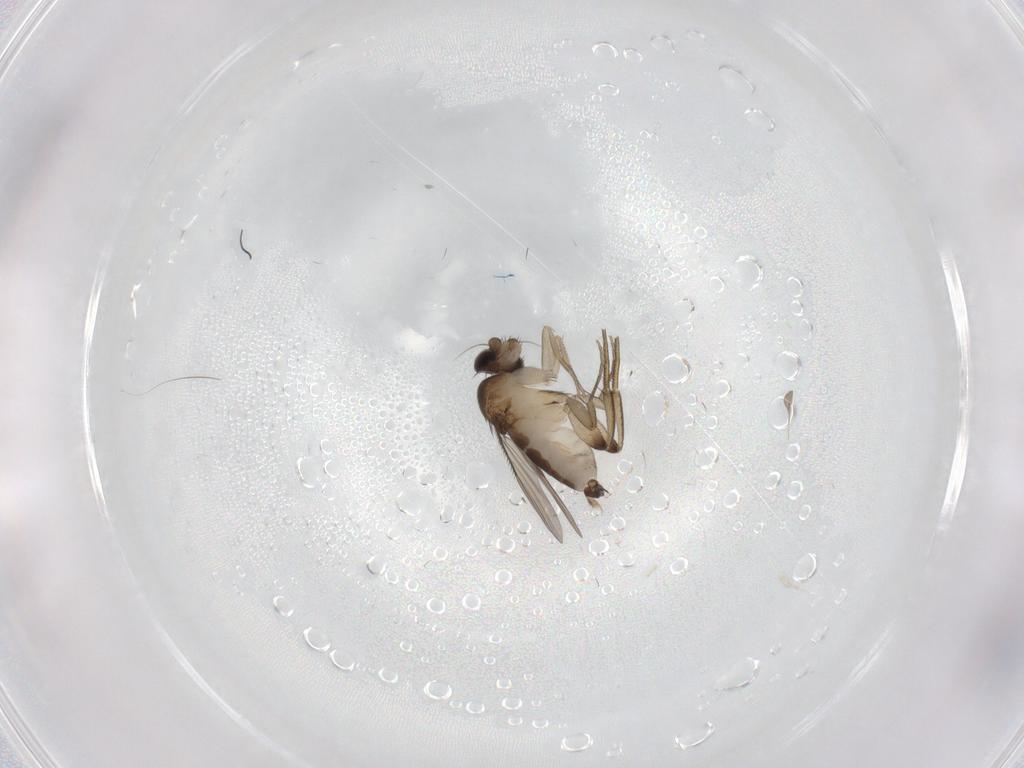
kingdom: Animalia
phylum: Arthropoda
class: Insecta
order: Diptera
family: Phoridae
